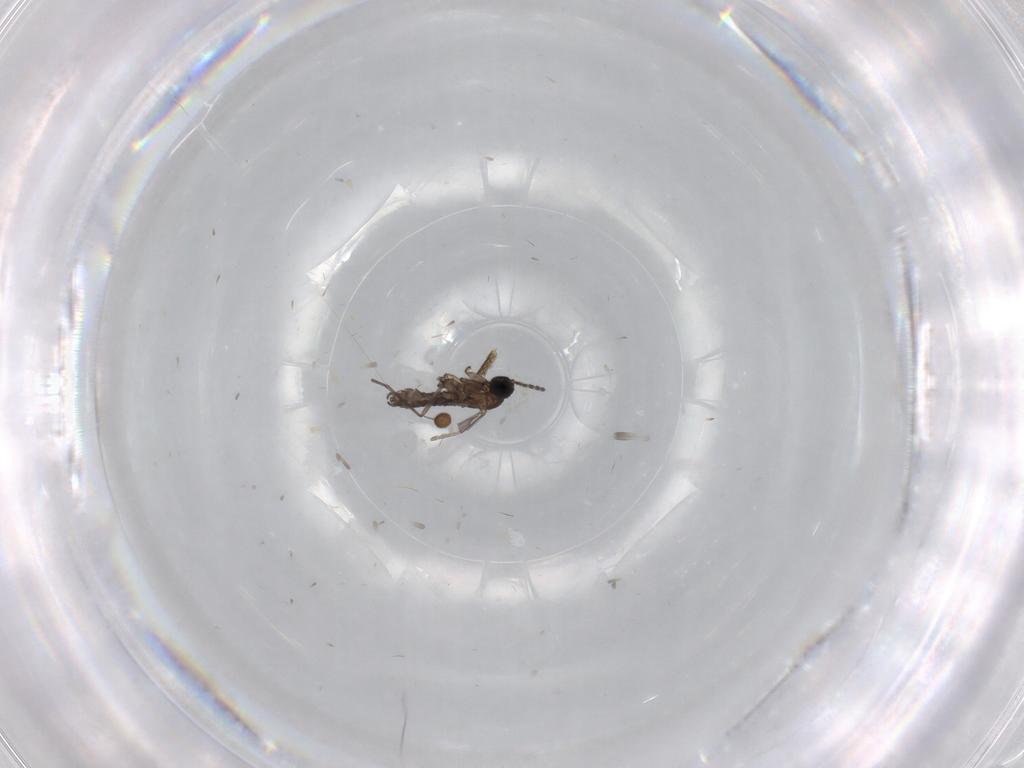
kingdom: Animalia
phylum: Arthropoda
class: Insecta
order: Diptera
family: Sciaridae
